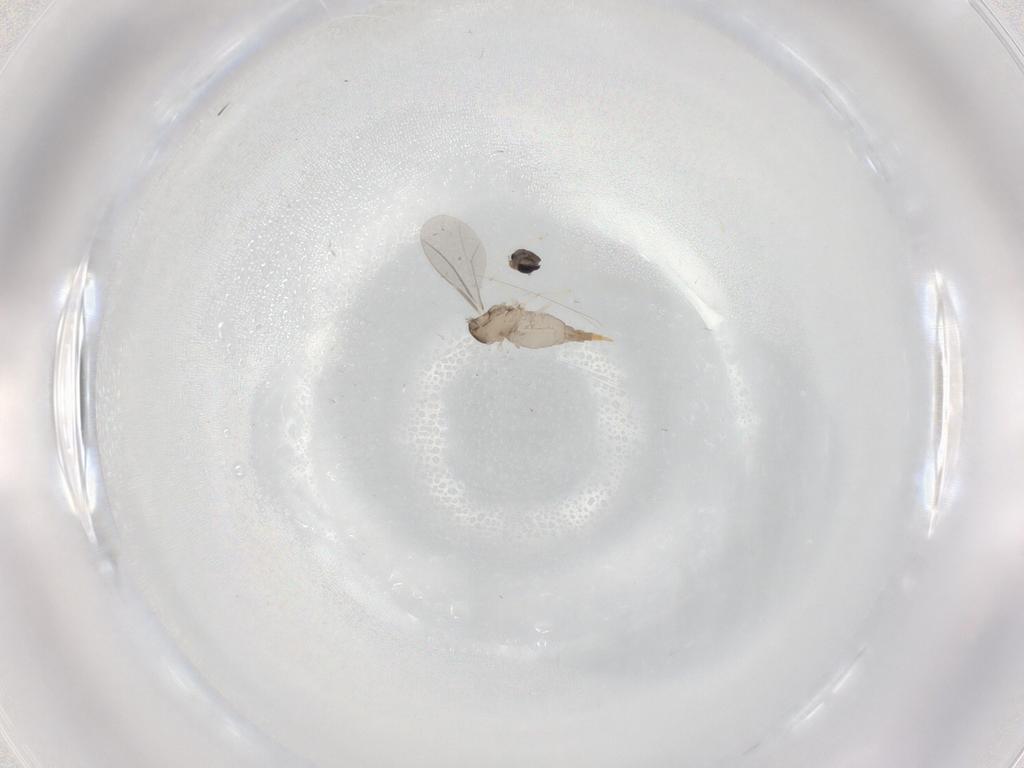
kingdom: Animalia
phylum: Arthropoda
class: Insecta
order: Diptera
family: Cecidomyiidae
